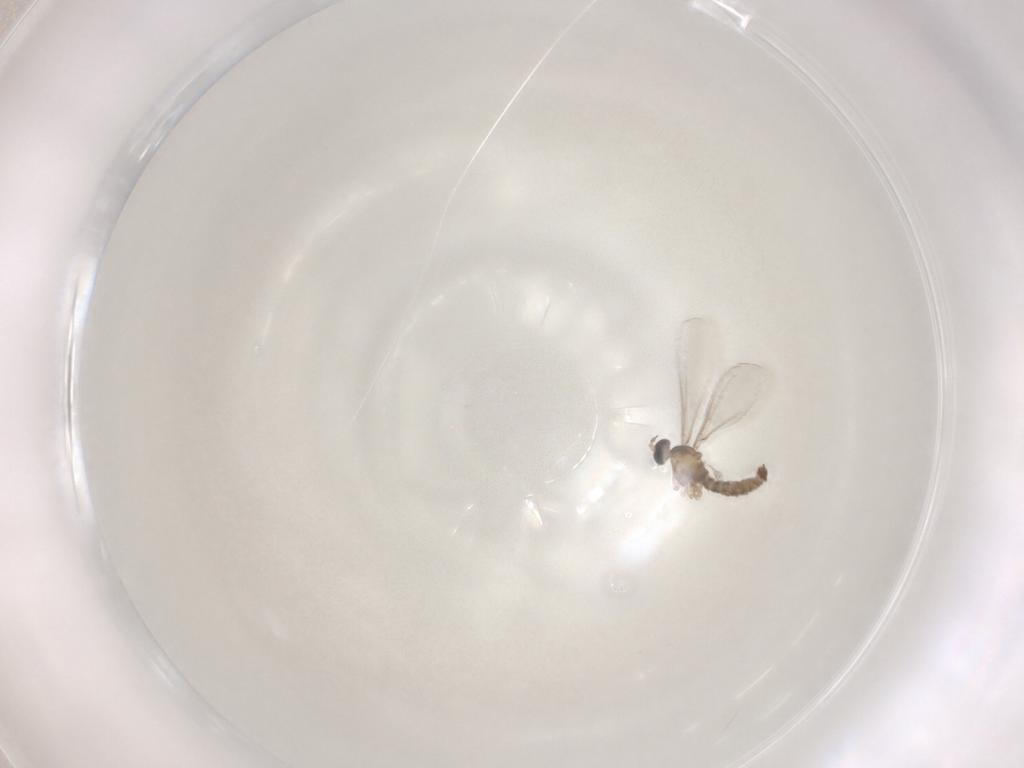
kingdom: Animalia
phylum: Arthropoda
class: Insecta
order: Diptera
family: Cecidomyiidae
